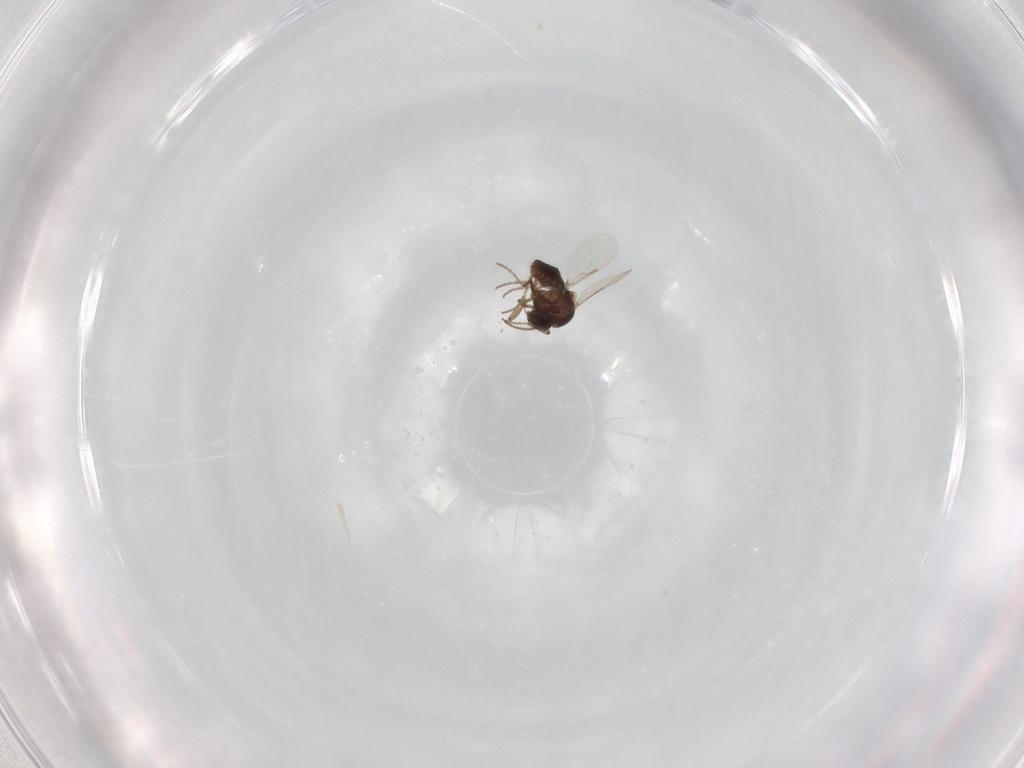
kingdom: Animalia
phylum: Arthropoda
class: Insecta
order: Diptera
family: Ceratopogonidae
